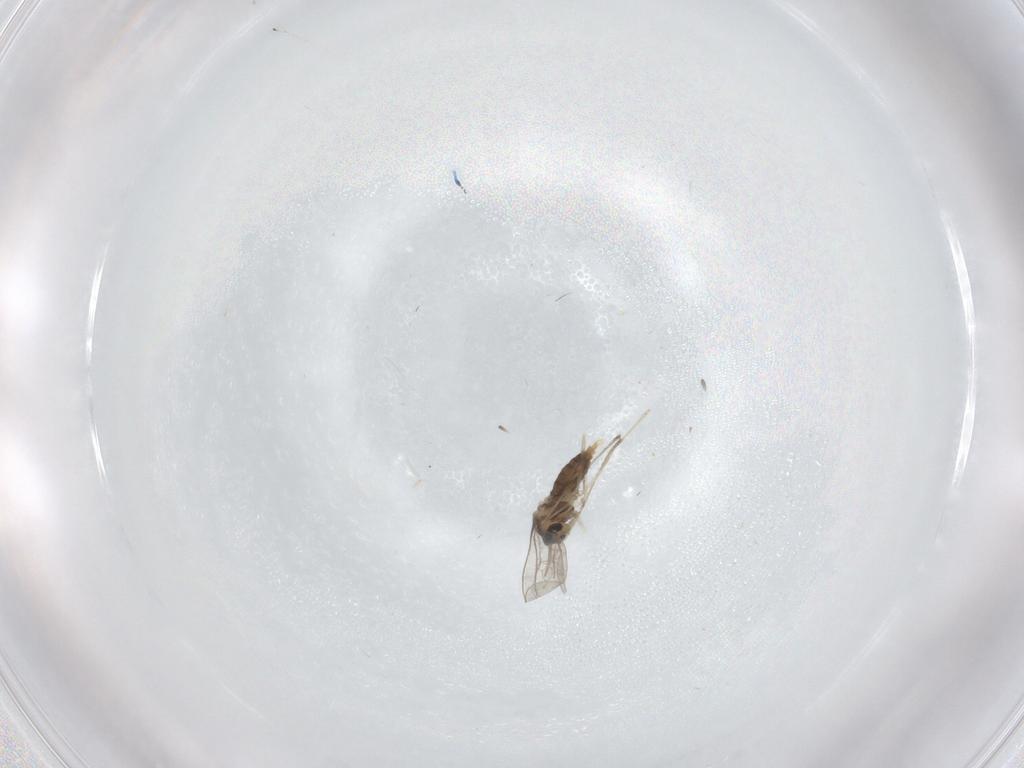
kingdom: Animalia
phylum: Arthropoda
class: Insecta
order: Diptera
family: Cecidomyiidae
